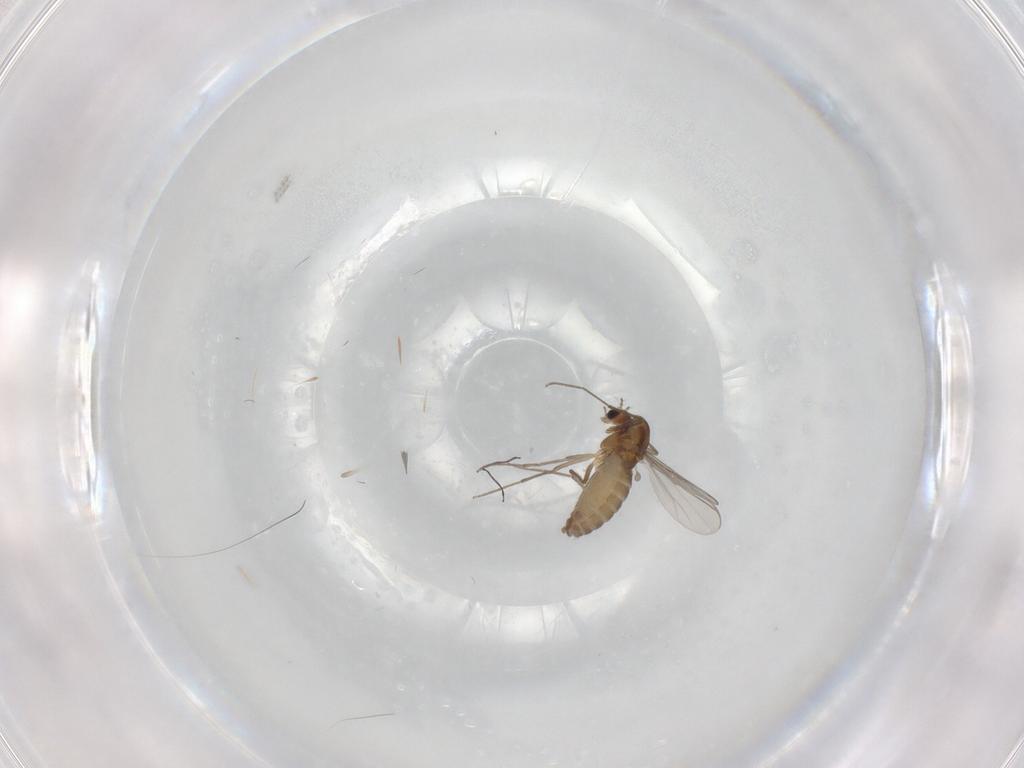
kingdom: Animalia
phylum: Arthropoda
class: Insecta
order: Diptera
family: Chironomidae
